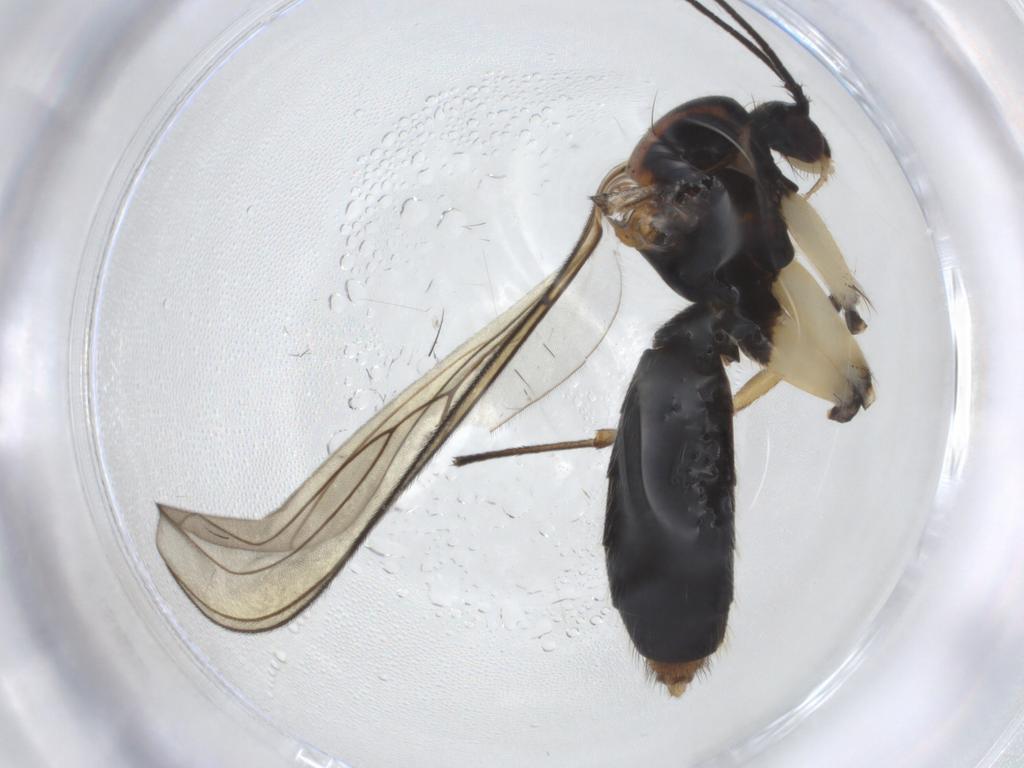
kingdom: Animalia
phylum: Arthropoda
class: Insecta
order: Diptera
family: Mycetophilidae
